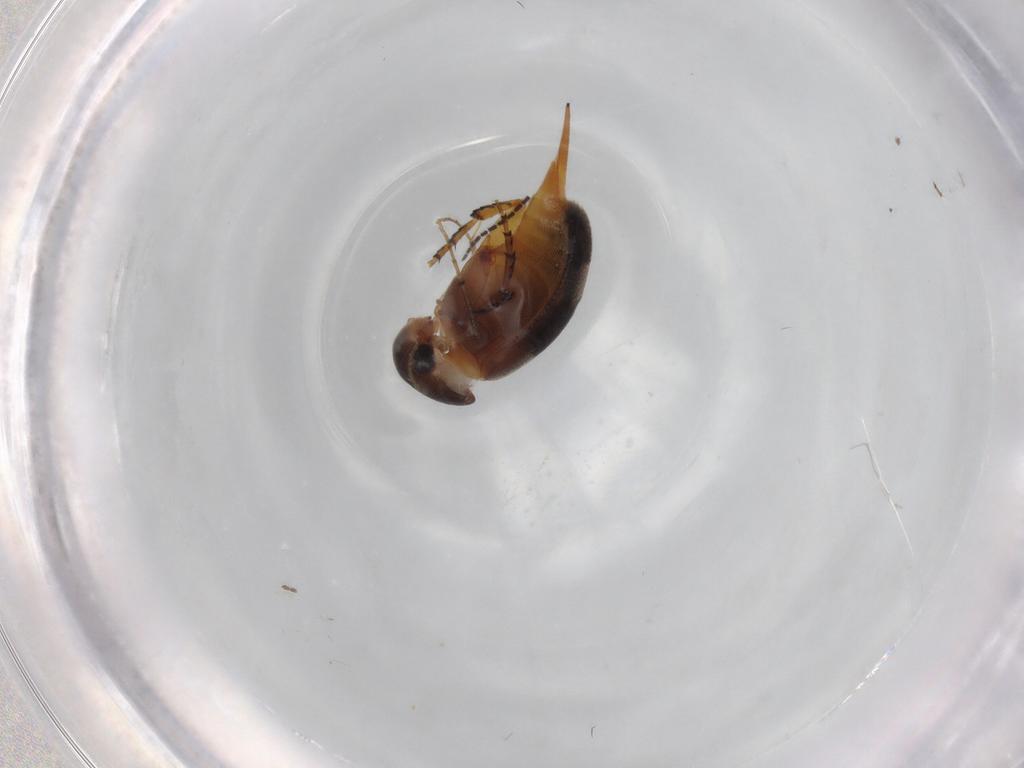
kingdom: Animalia
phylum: Arthropoda
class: Insecta
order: Coleoptera
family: Mordellidae
